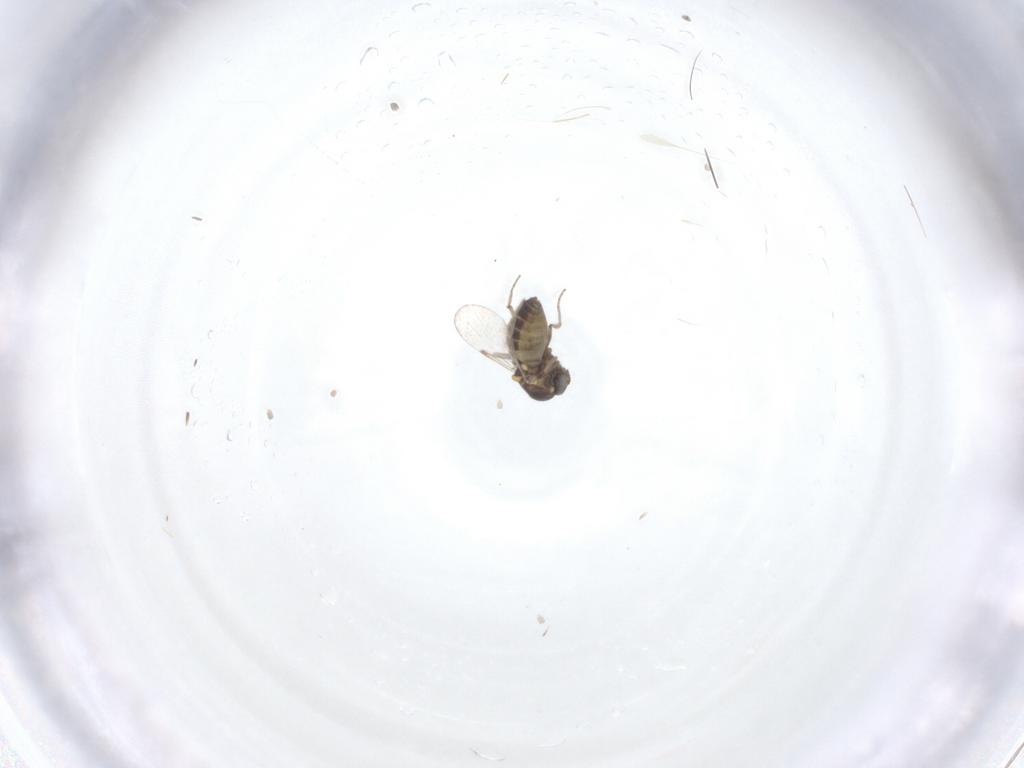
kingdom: Animalia
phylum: Arthropoda
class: Insecta
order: Diptera
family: Ceratopogonidae
